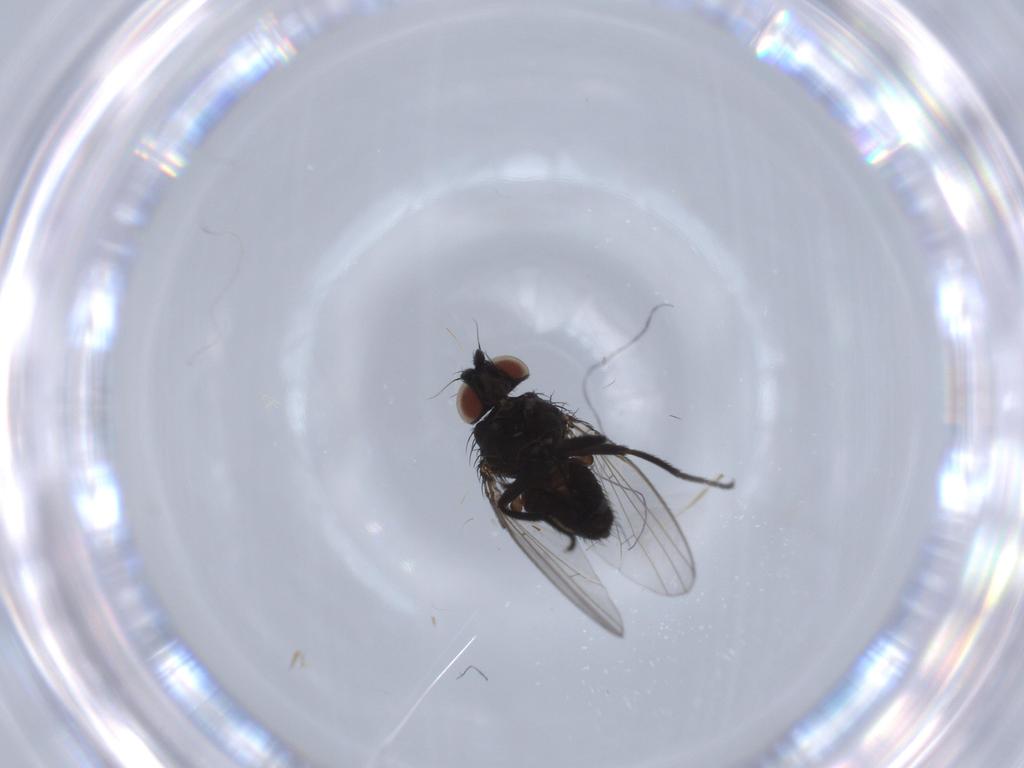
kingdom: Animalia
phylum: Arthropoda
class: Insecta
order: Diptera
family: Milichiidae
